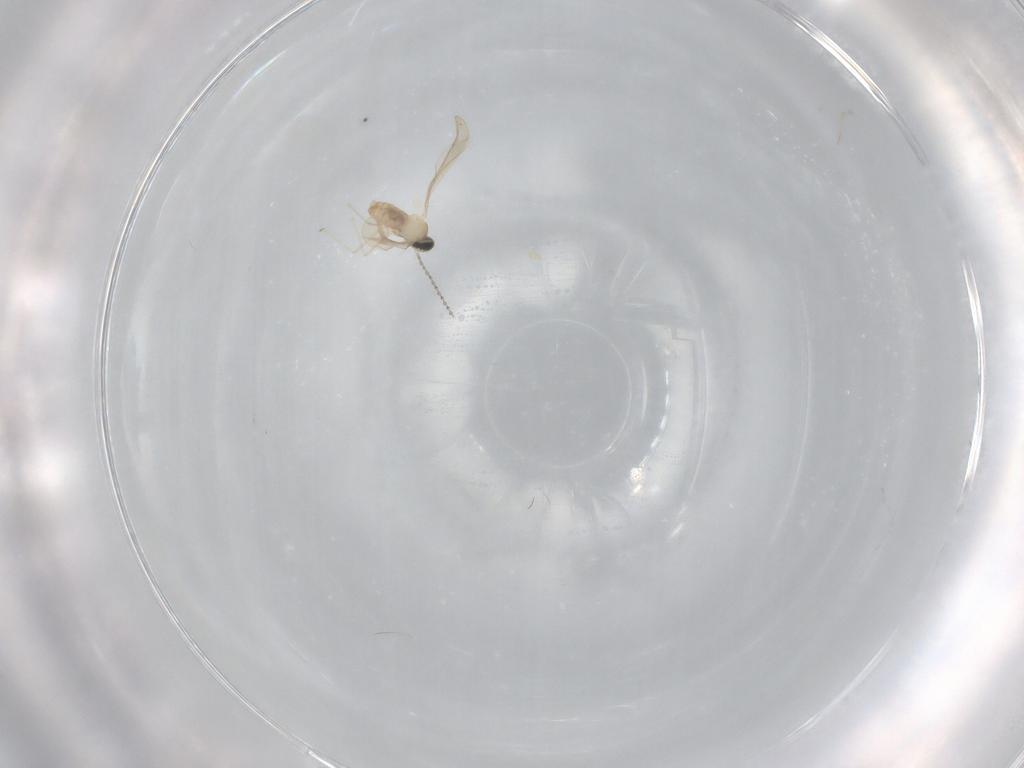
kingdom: Animalia
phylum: Arthropoda
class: Insecta
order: Diptera
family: Cecidomyiidae
